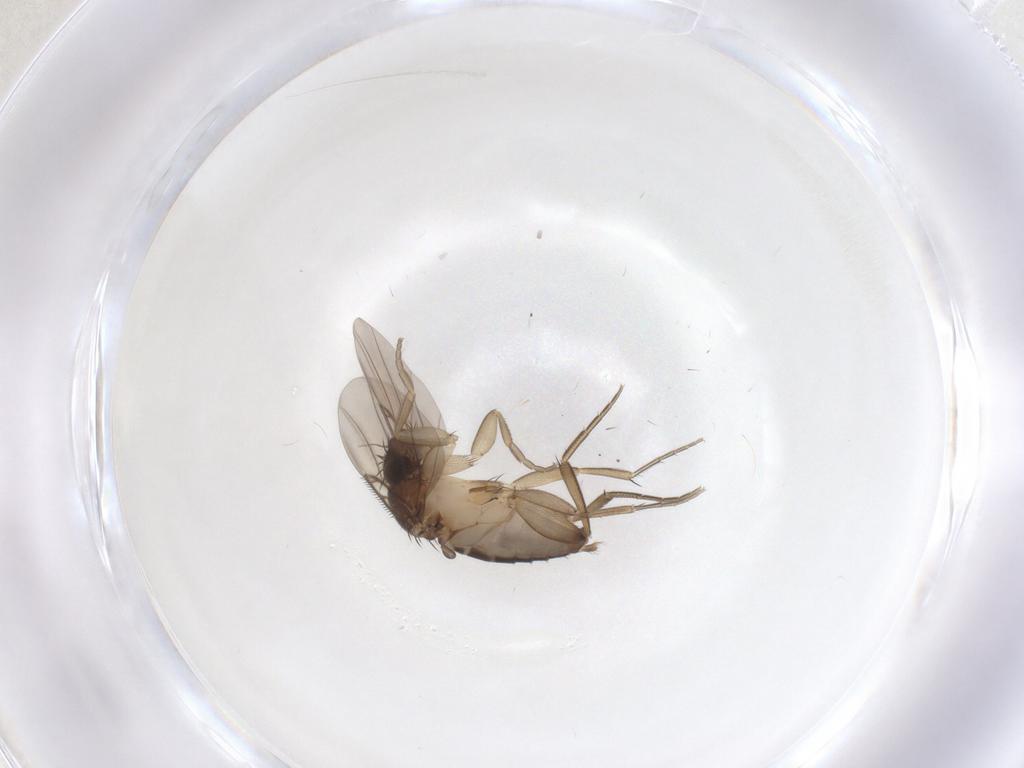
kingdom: Animalia
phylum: Arthropoda
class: Insecta
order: Diptera
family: Phoridae
